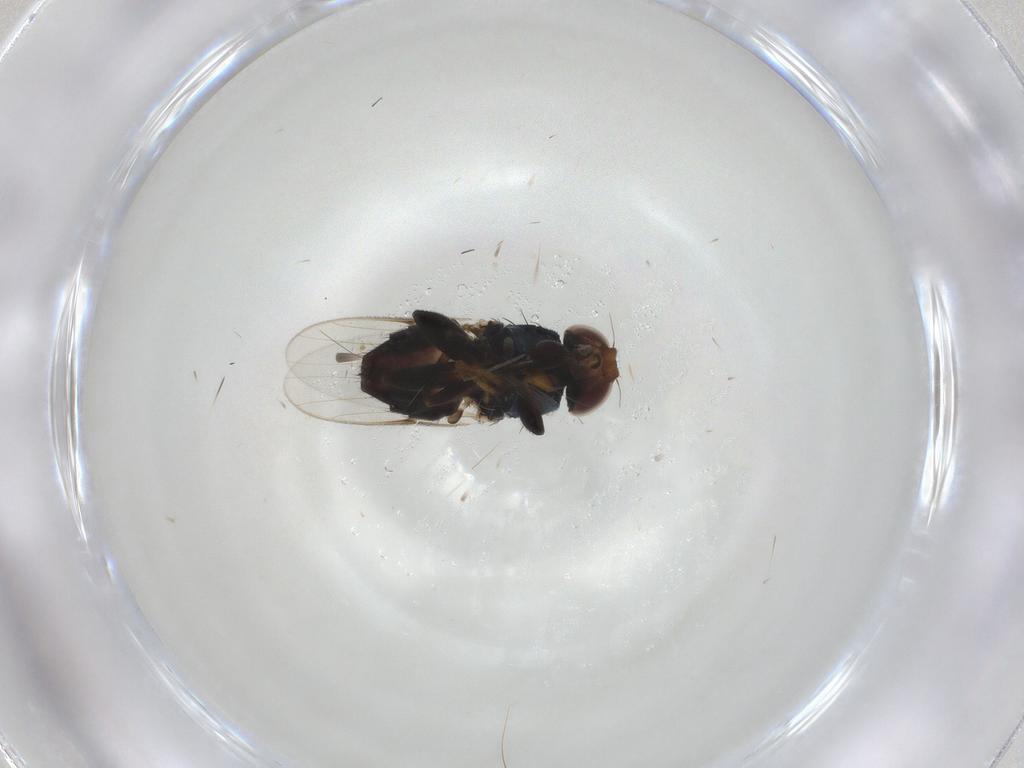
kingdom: Animalia
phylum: Arthropoda
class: Insecta
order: Diptera
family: Chloropidae
